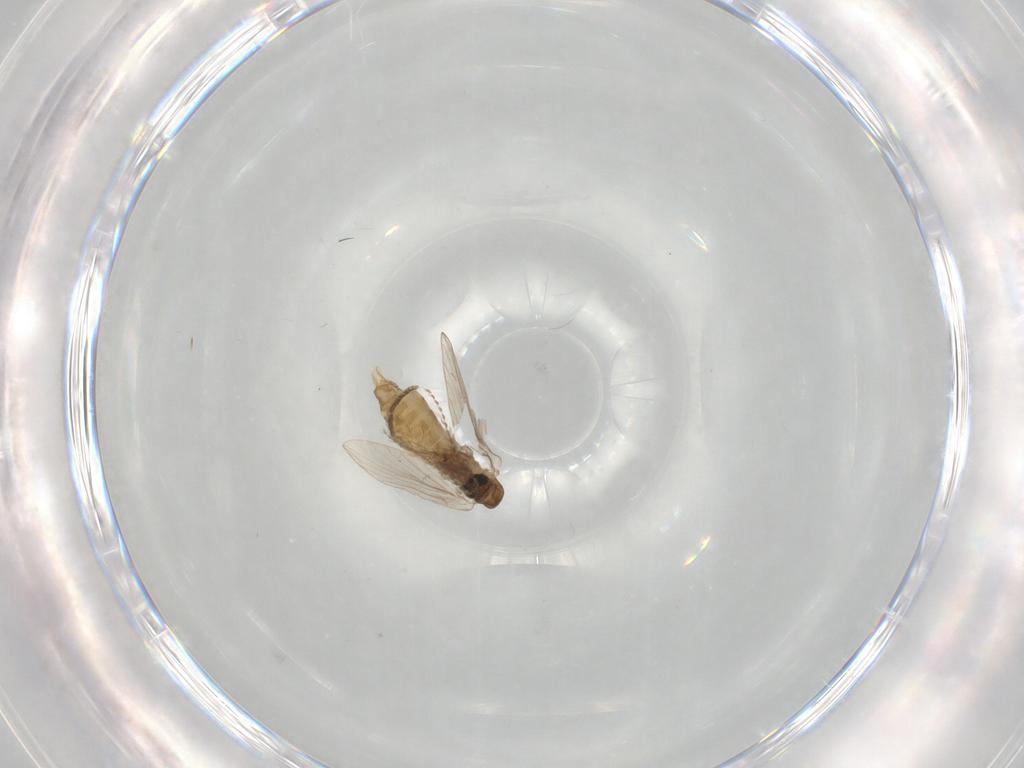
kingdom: Animalia
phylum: Arthropoda
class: Insecta
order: Diptera
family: Psychodidae
